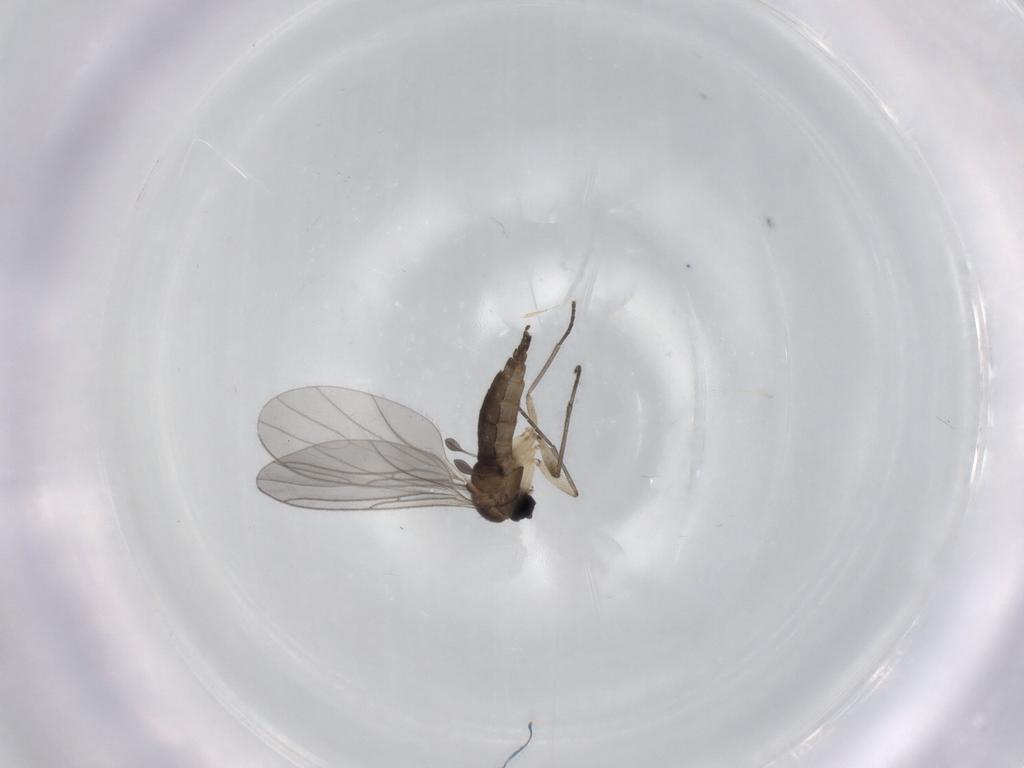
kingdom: Animalia
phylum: Arthropoda
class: Insecta
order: Diptera
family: Sciaridae
